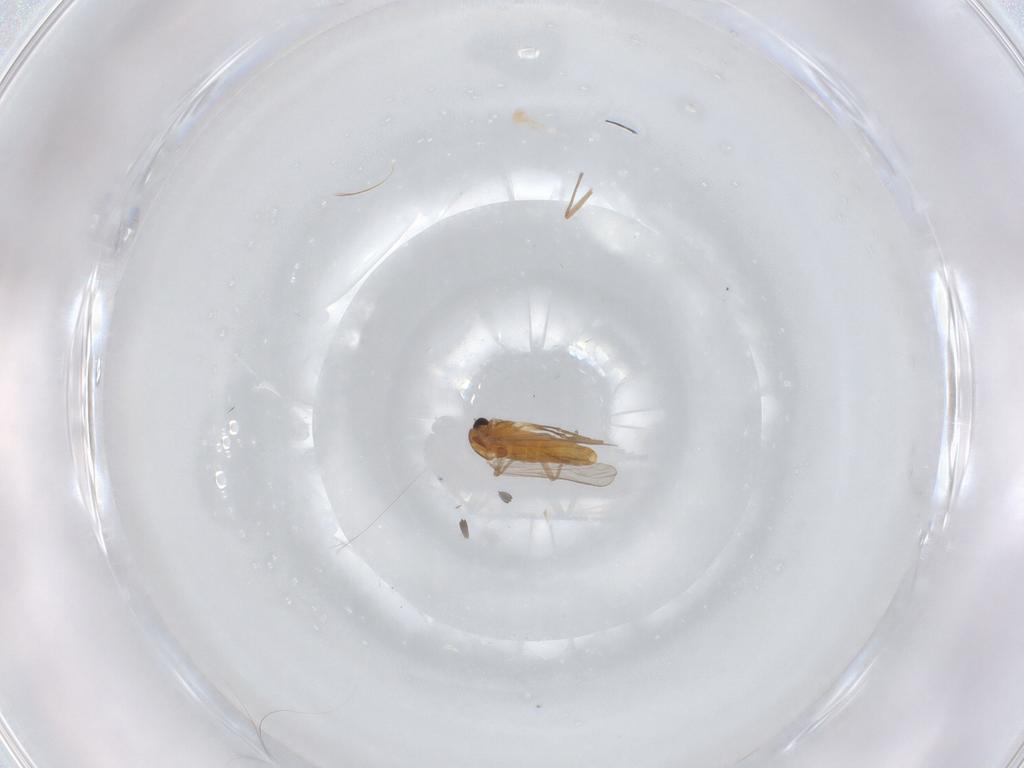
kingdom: Animalia
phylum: Arthropoda
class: Insecta
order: Diptera
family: Chironomidae
